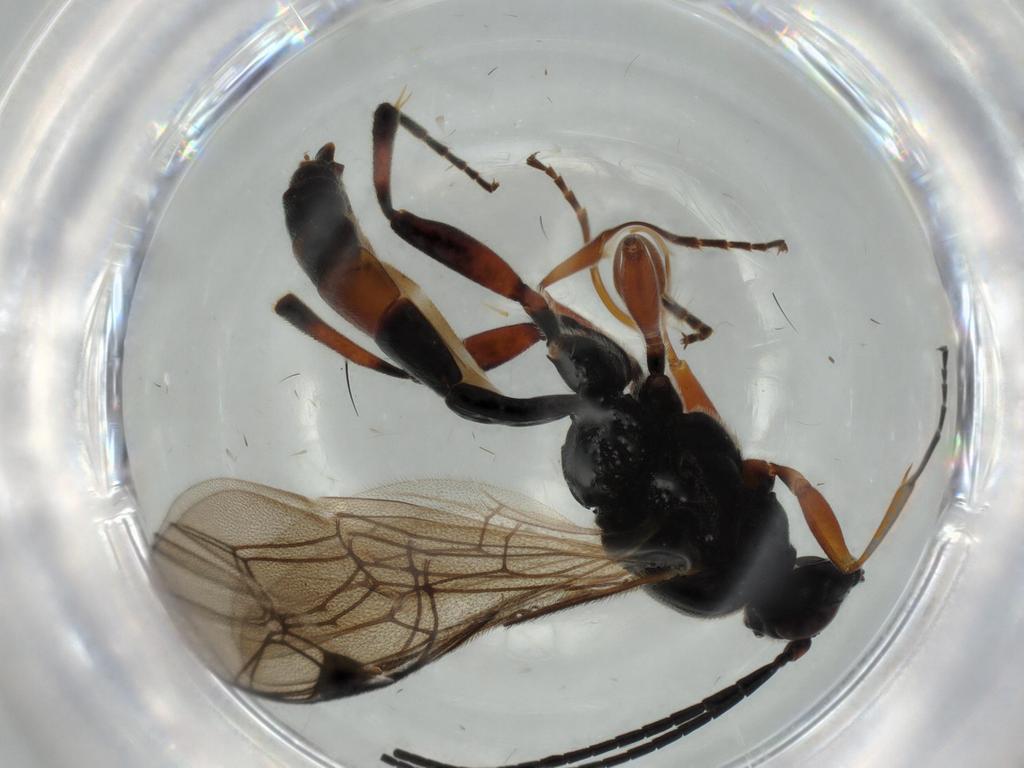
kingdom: Animalia
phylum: Arthropoda
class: Insecta
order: Hymenoptera
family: Ichneumonidae
